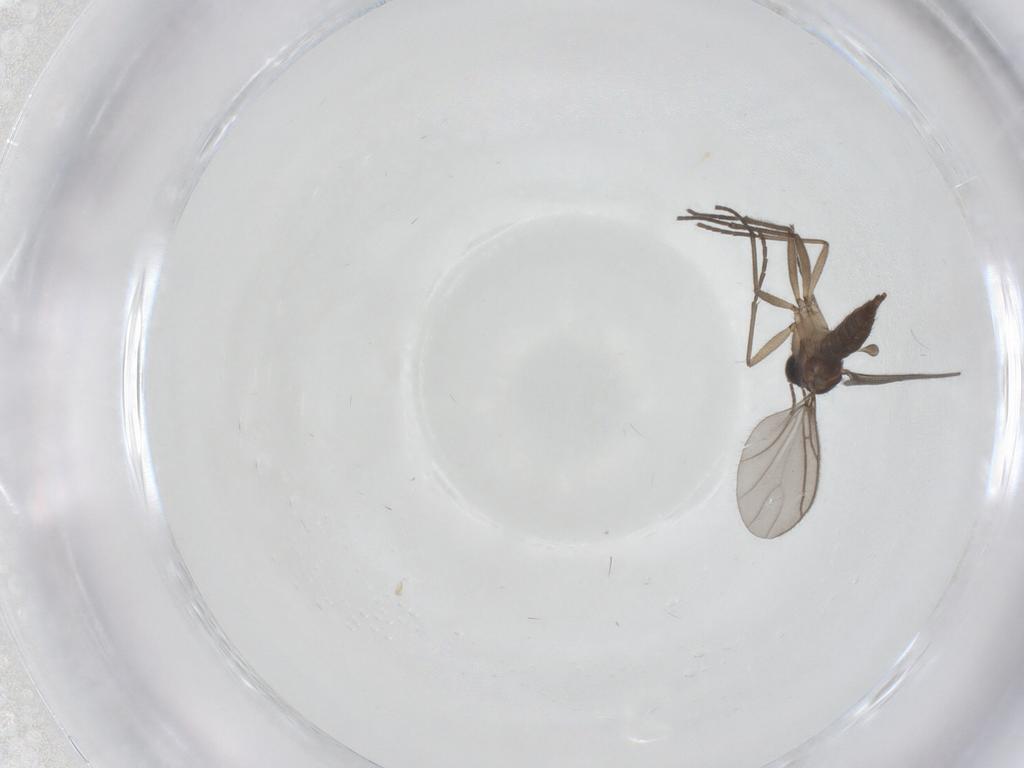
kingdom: Animalia
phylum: Arthropoda
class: Insecta
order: Diptera
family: Sciaridae
